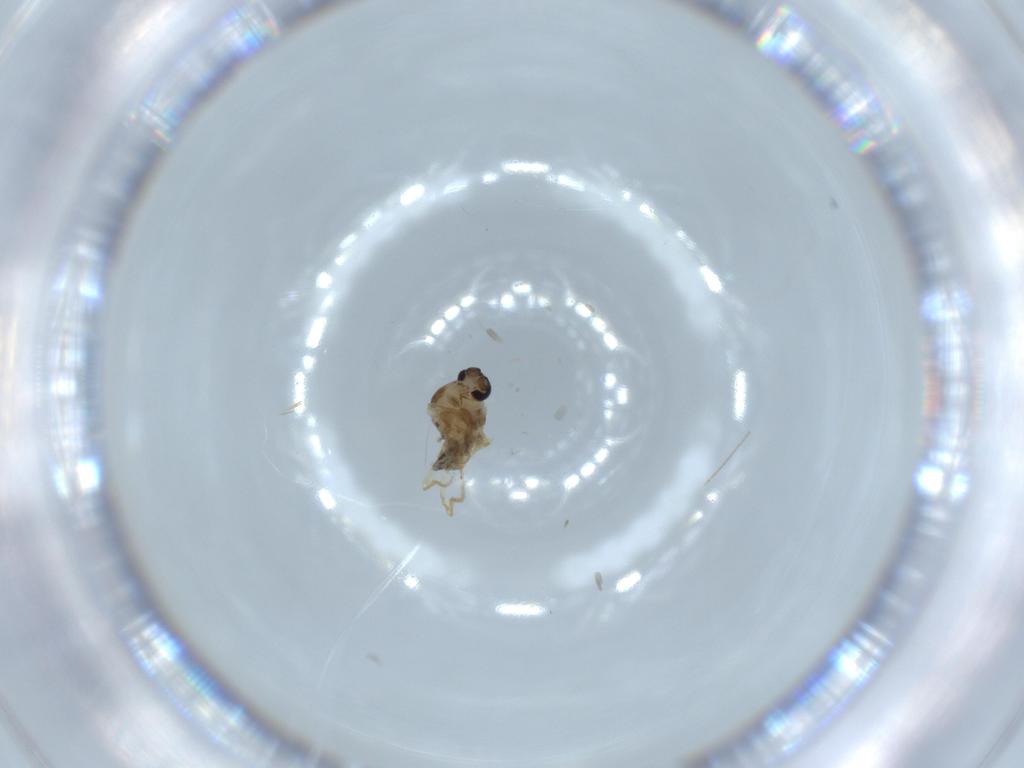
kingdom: Animalia
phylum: Arthropoda
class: Insecta
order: Diptera
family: Ceratopogonidae
